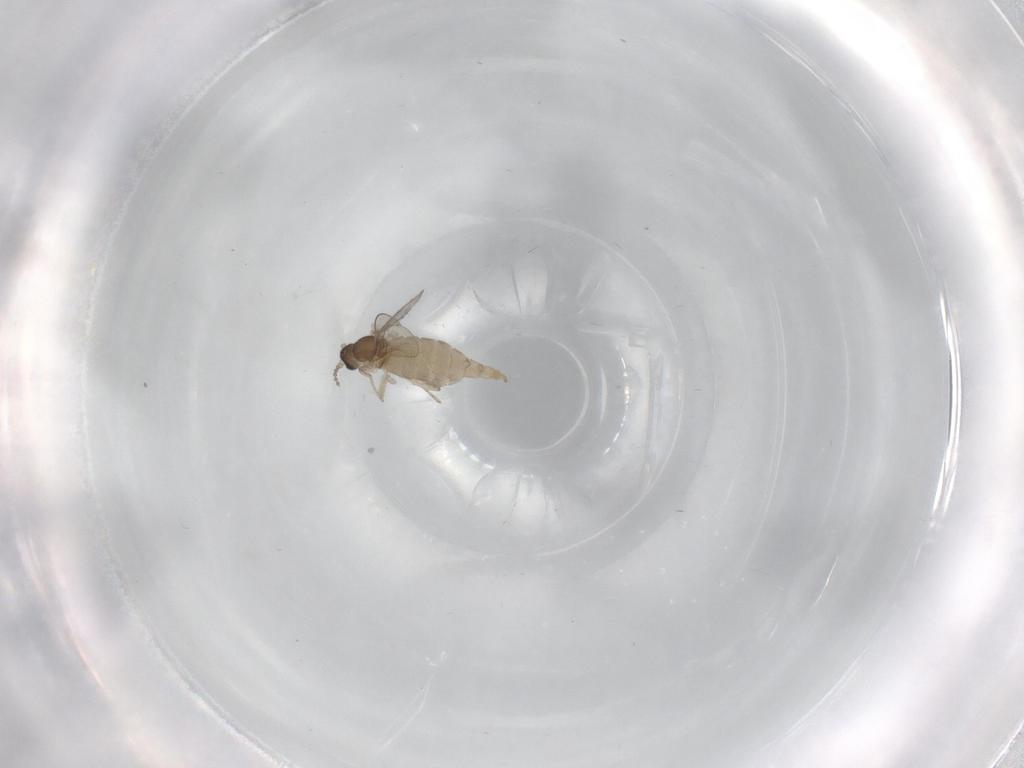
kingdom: Animalia
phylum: Arthropoda
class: Insecta
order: Diptera
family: Cecidomyiidae
